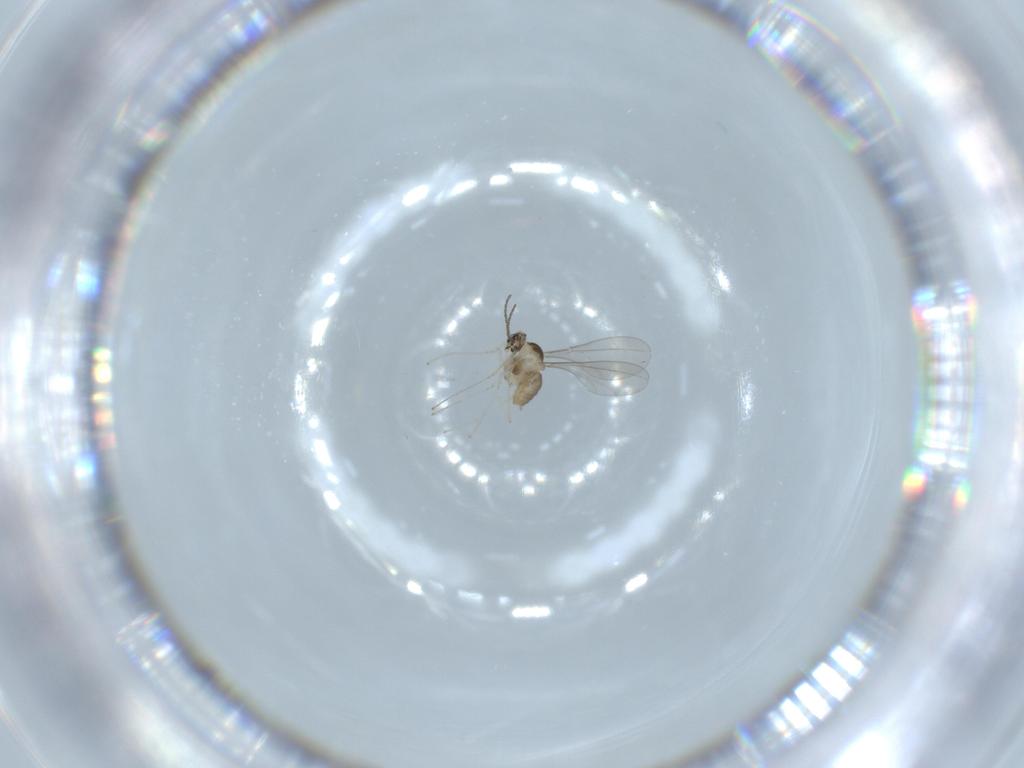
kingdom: Animalia
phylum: Arthropoda
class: Insecta
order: Diptera
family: Cecidomyiidae
